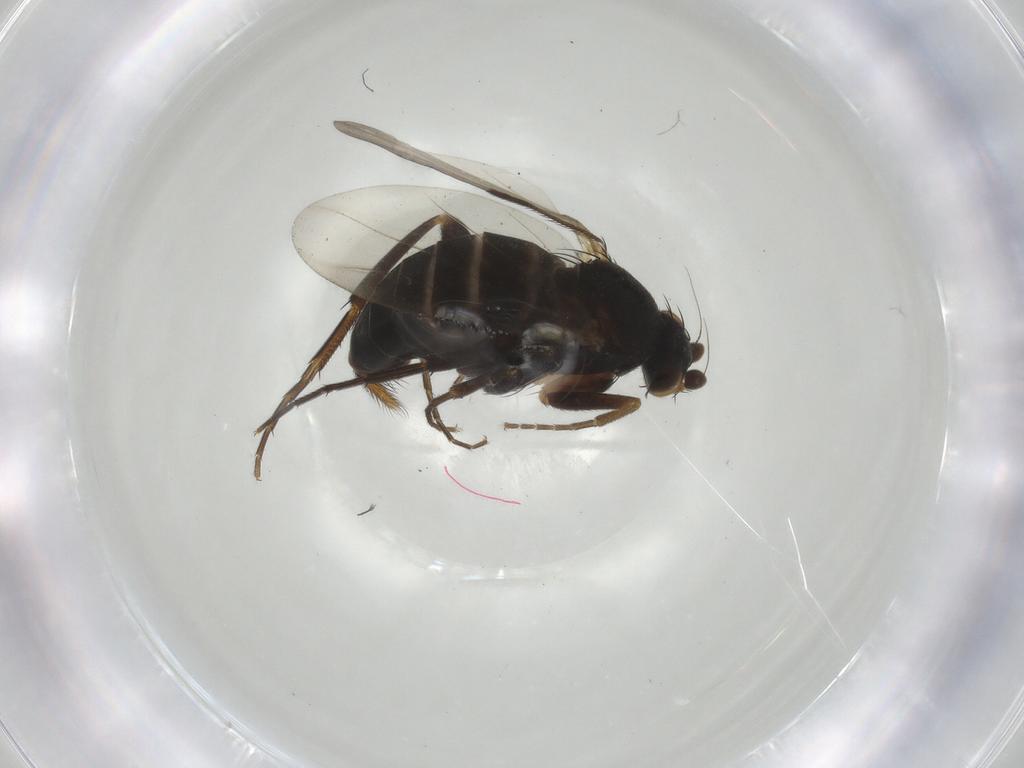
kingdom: Animalia
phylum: Arthropoda
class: Insecta
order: Diptera
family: Phoridae
